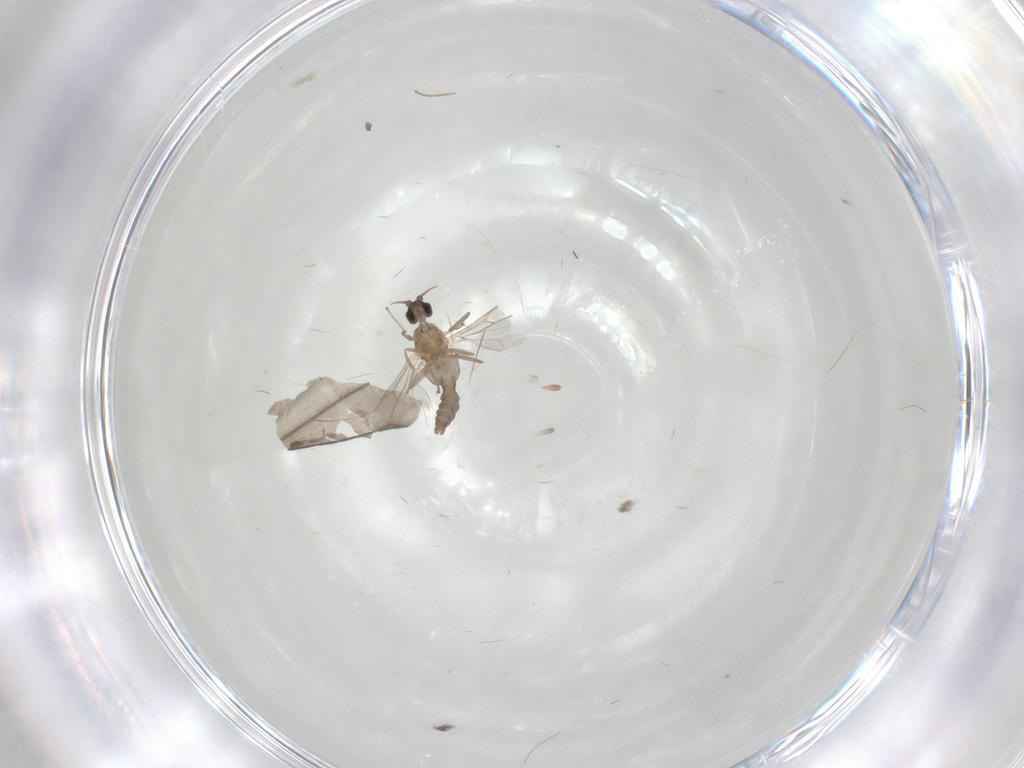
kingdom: Animalia
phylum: Arthropoda
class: Insecta
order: Diptera
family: Cecidomyiidae
